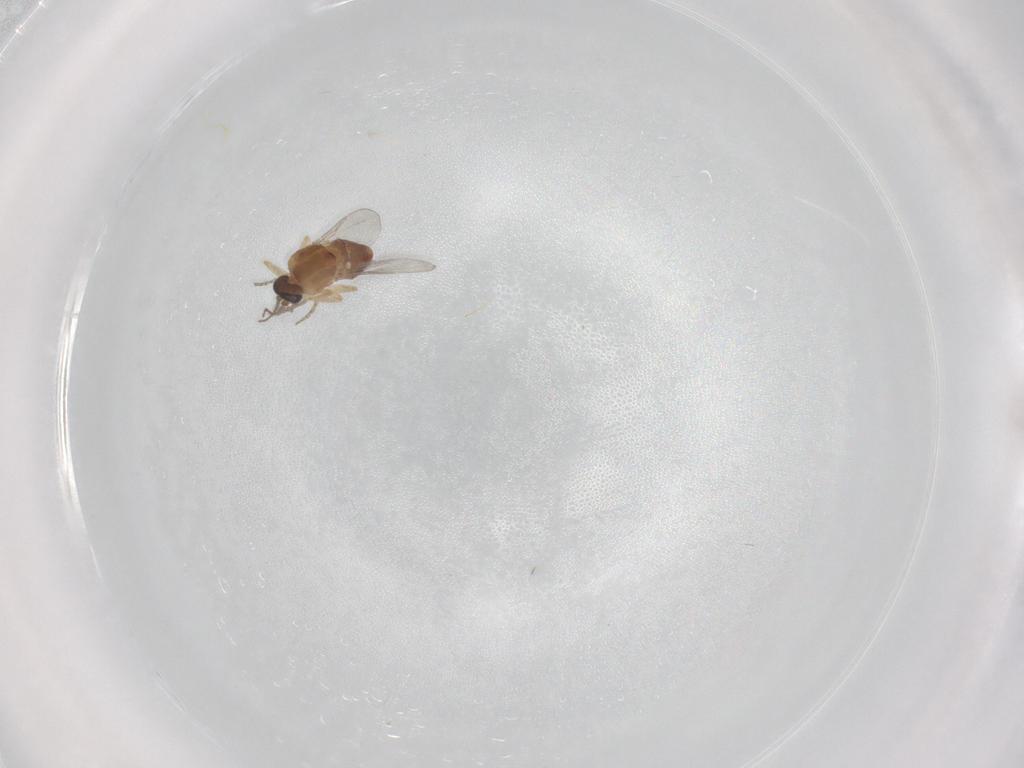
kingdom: Animalia
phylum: Arthropoda
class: Insecta
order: Diptera
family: Ceratopogonidae
